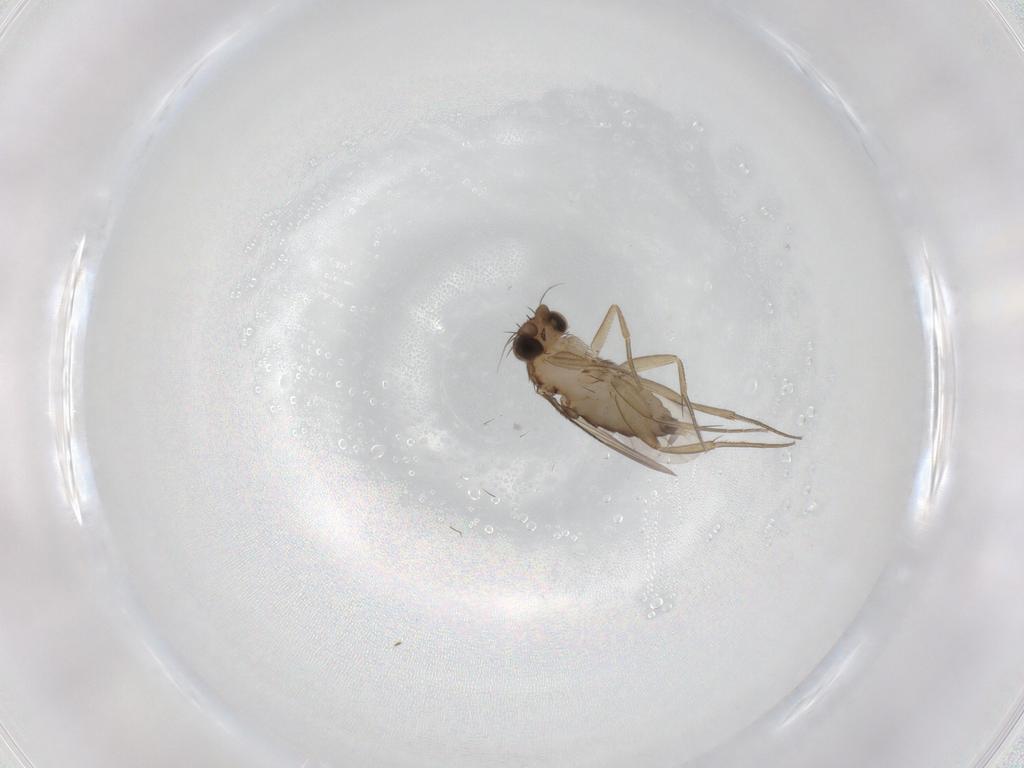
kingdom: Animalia
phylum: Arthropoda
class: Insecta
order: Diptera
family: Phoridae
